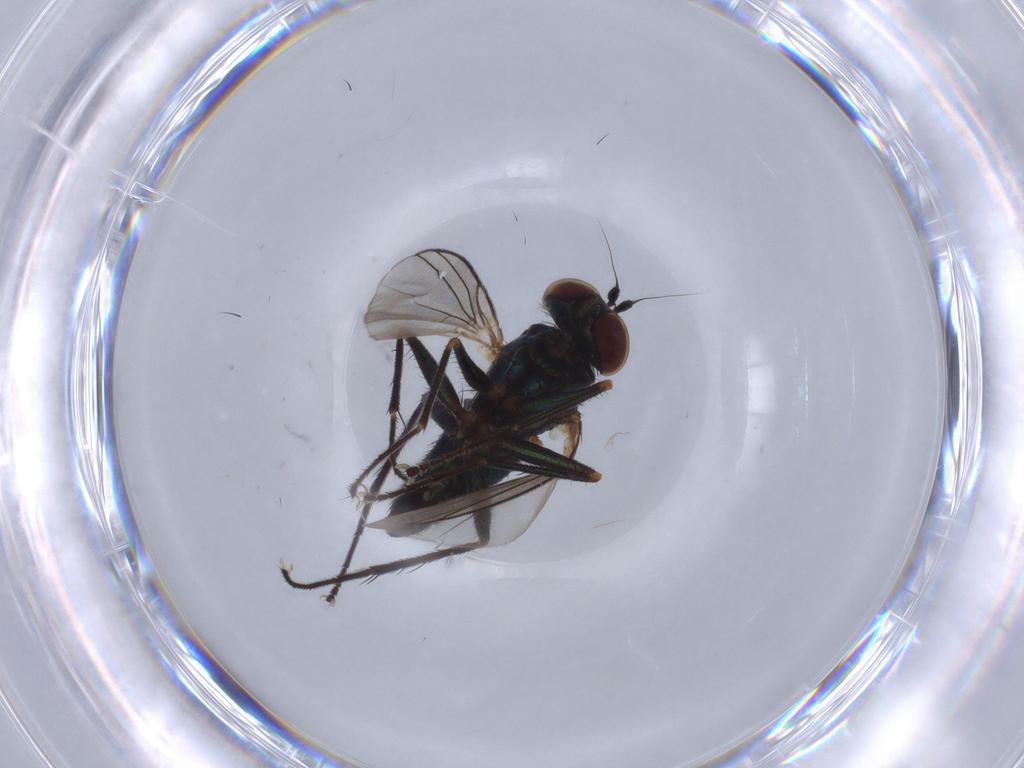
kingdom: Animalia
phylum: Arthropoda
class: Insecta
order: Diptera
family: Dolichopodidae
